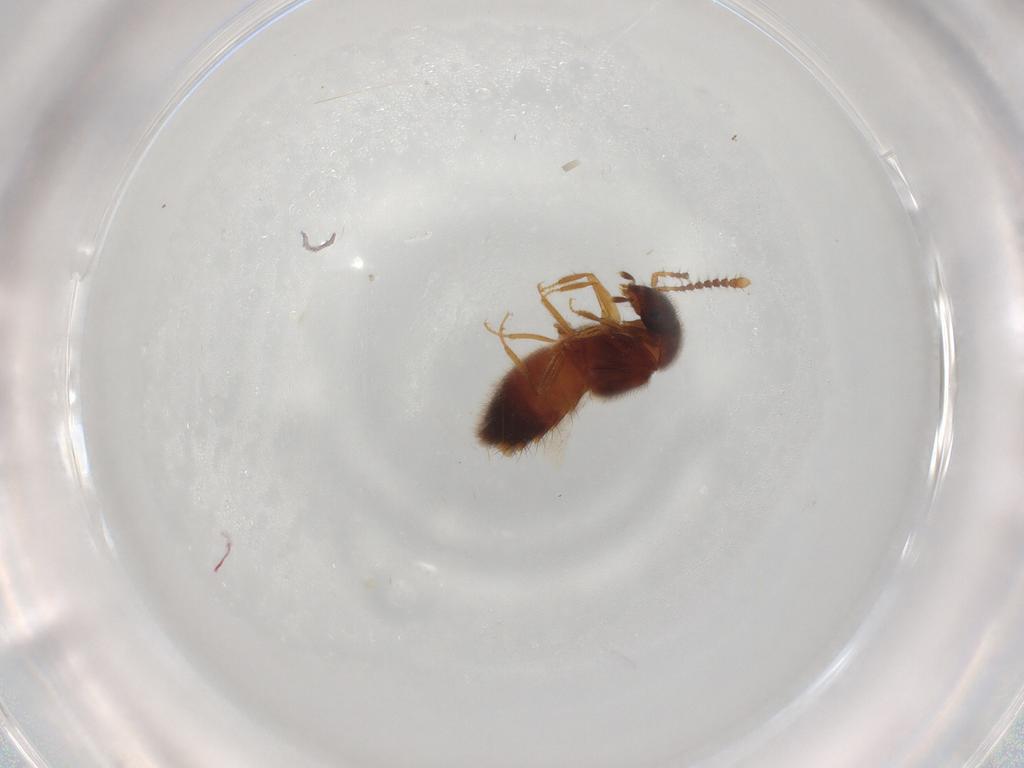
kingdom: Animalia
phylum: Arthropoda
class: Insecta
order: Coleoptera
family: Staphylinidae
